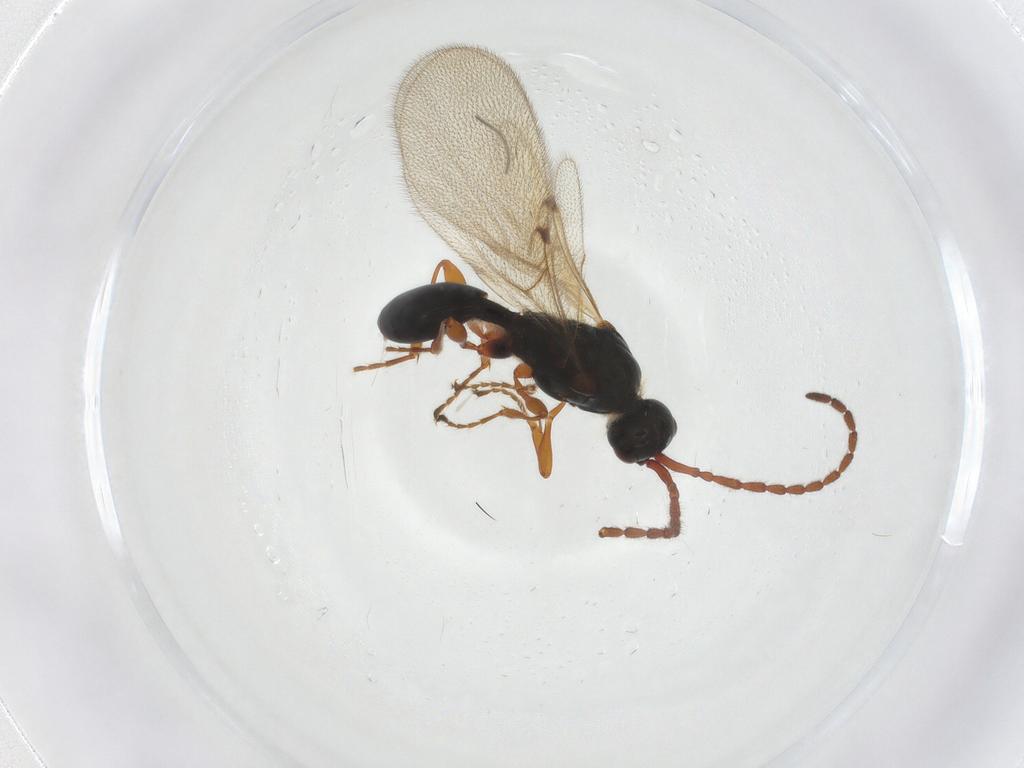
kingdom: Animalia
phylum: Arthropoda
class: Insecta
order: Hymenoptera
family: Diapriidae
